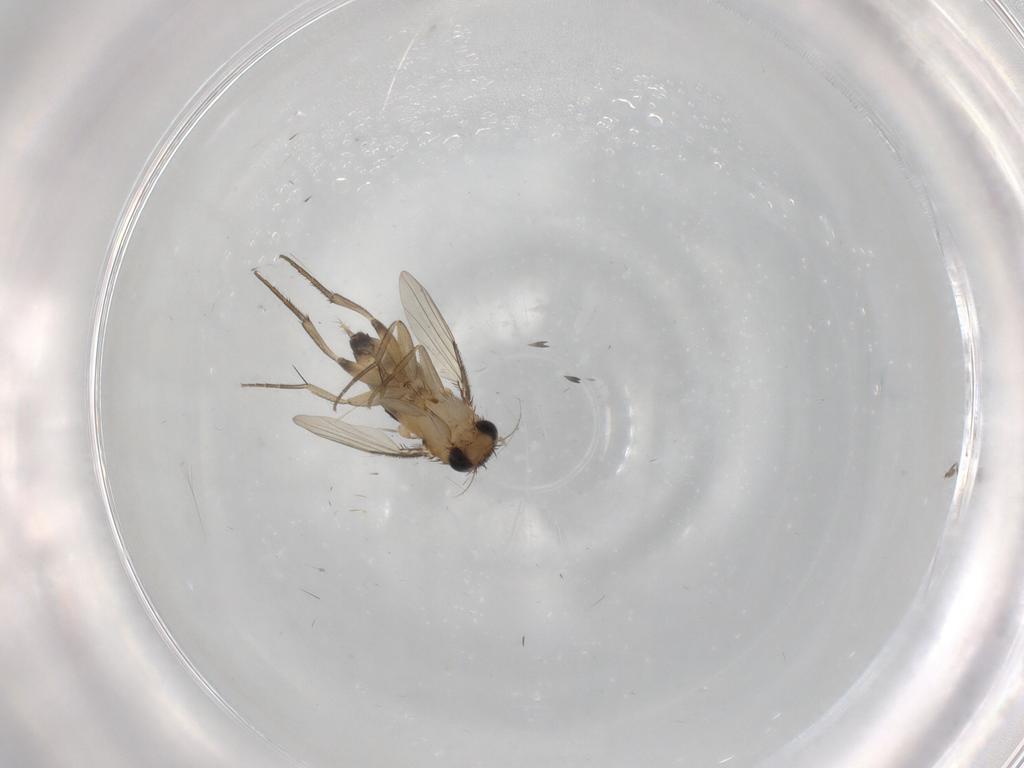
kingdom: Animalia
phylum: Arthropoda
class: Insecta
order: Diptera
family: Phoridae
